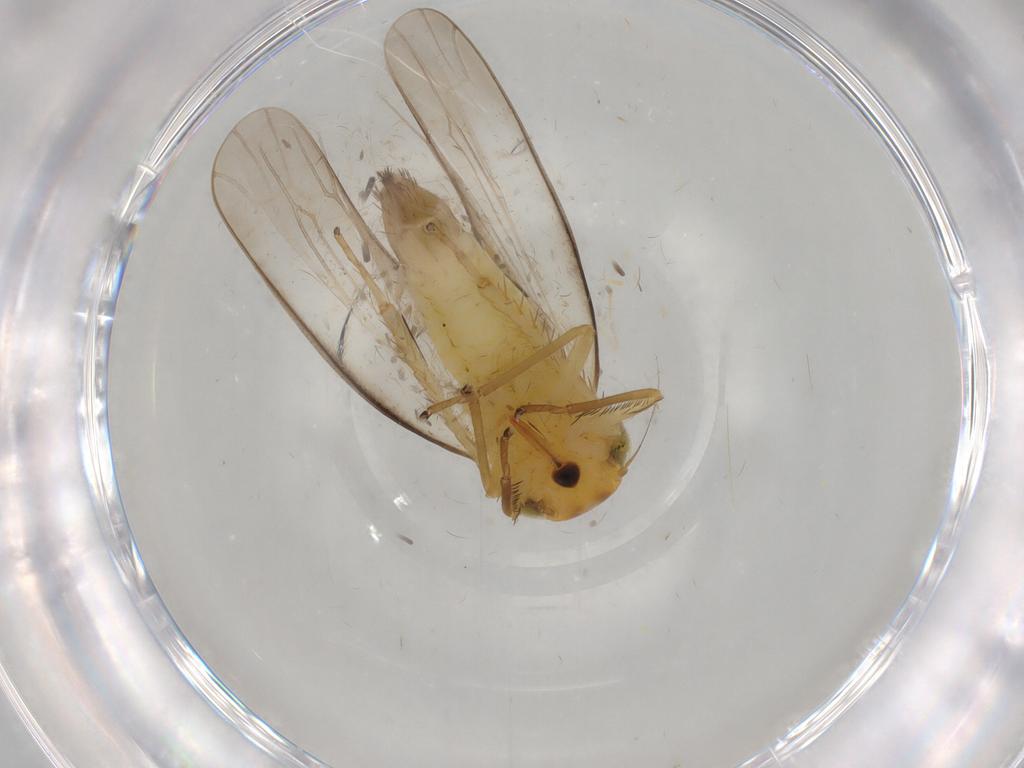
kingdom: Animalia
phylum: Arthropoda
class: Insecta
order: Hemiptera
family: Cicadellidae
